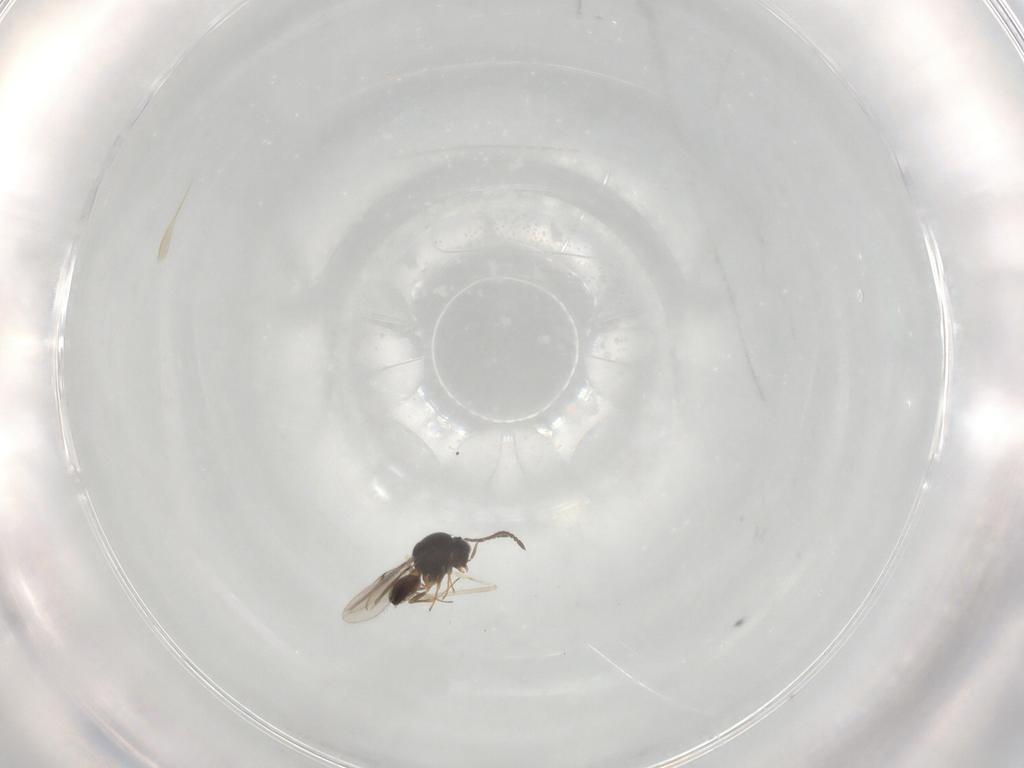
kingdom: Animalia
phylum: Arthropoda
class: Insecta
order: Hymenoptera
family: Scelionidae
